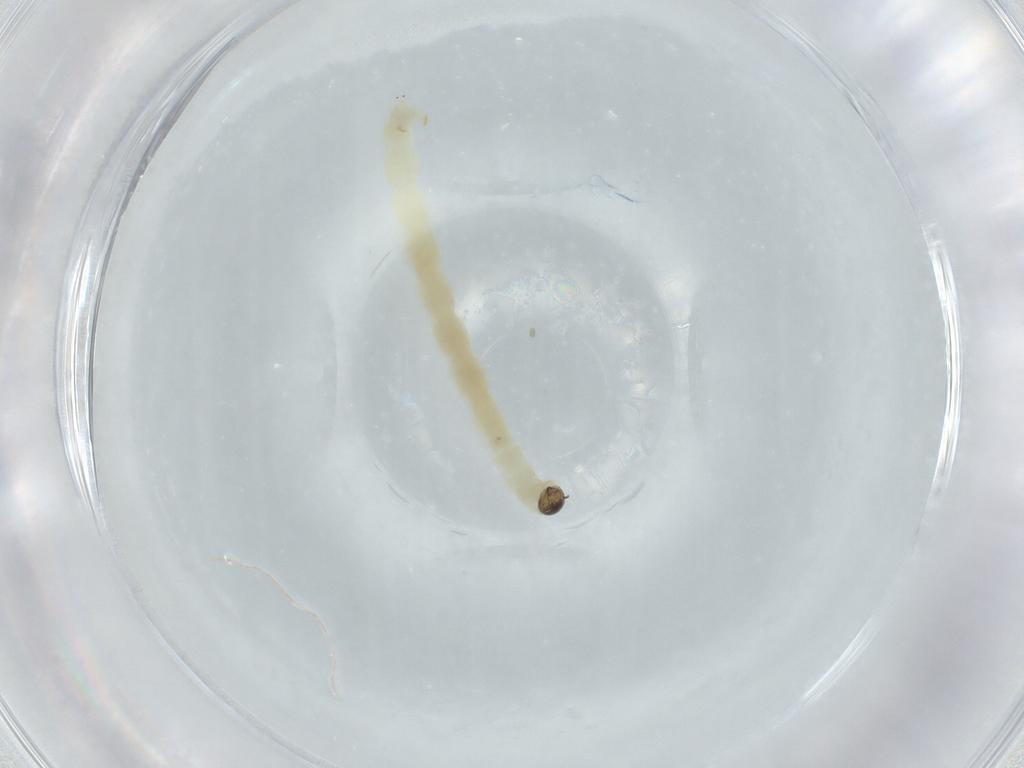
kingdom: Animalia
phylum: Arthropoda
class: Insecta
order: Diptera
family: Chironomidae
